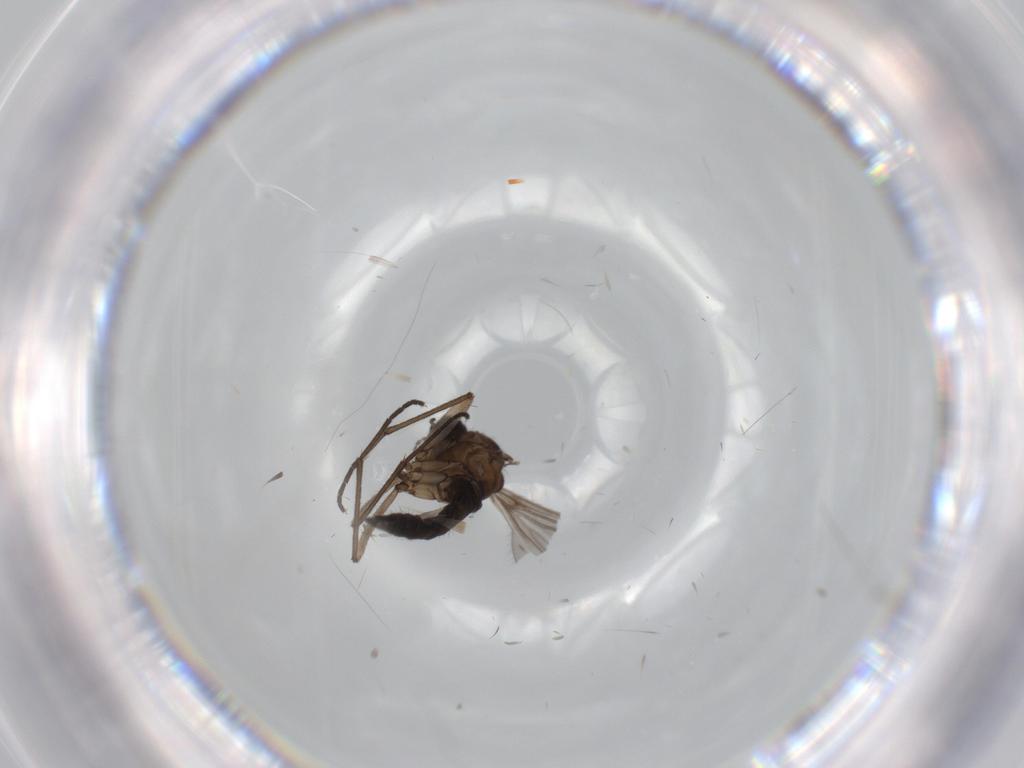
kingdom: Animalia
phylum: Arthropoda
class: Insecta
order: Diptera
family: Sciaridae
